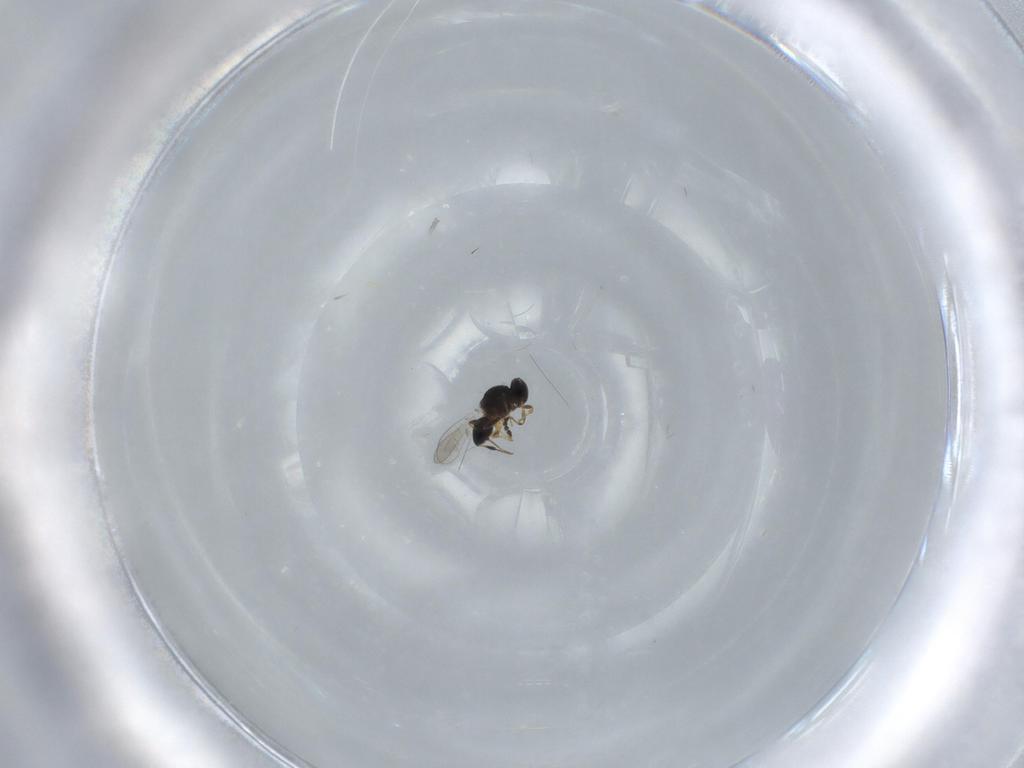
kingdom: Animalia
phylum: Arthropoda
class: Insecta
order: Hymenoptera
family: Platygastridae
